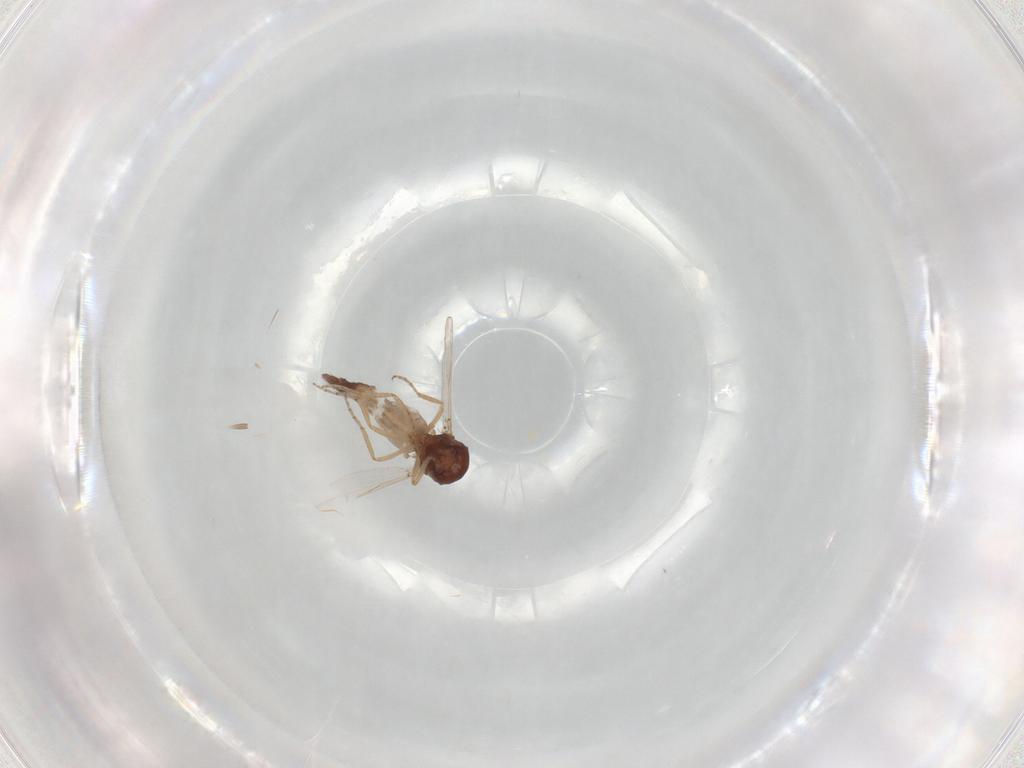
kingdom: Animalia
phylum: Arthropoda
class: Insecta
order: Diptera
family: Ceratopogonidae
